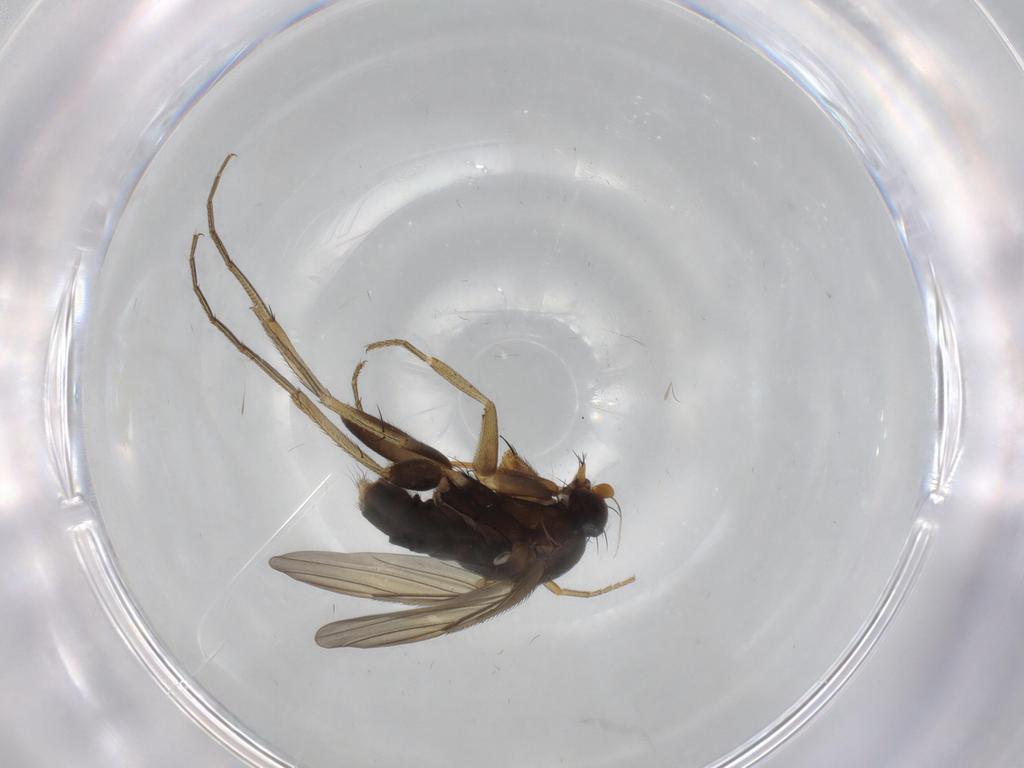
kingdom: Animalia
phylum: Arthropoda
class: Insecta
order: Diptera
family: Phoridae
